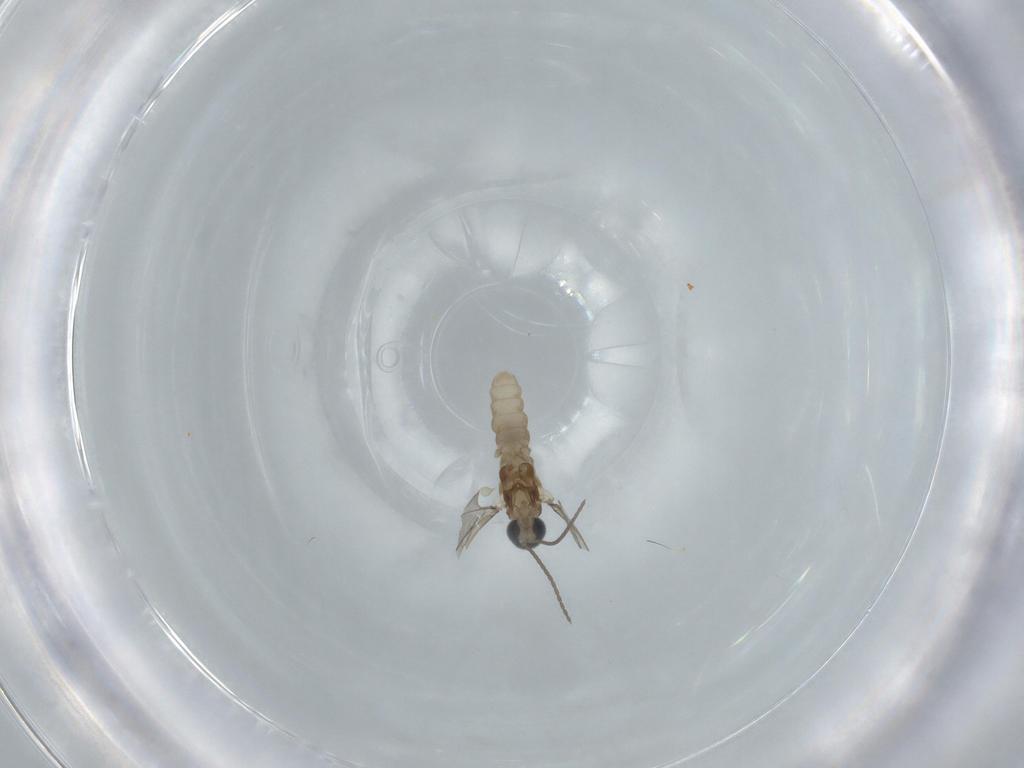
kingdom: Animalia
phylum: Arthropoda
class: Insecta
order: Diptera
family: Cecidomyiidae
